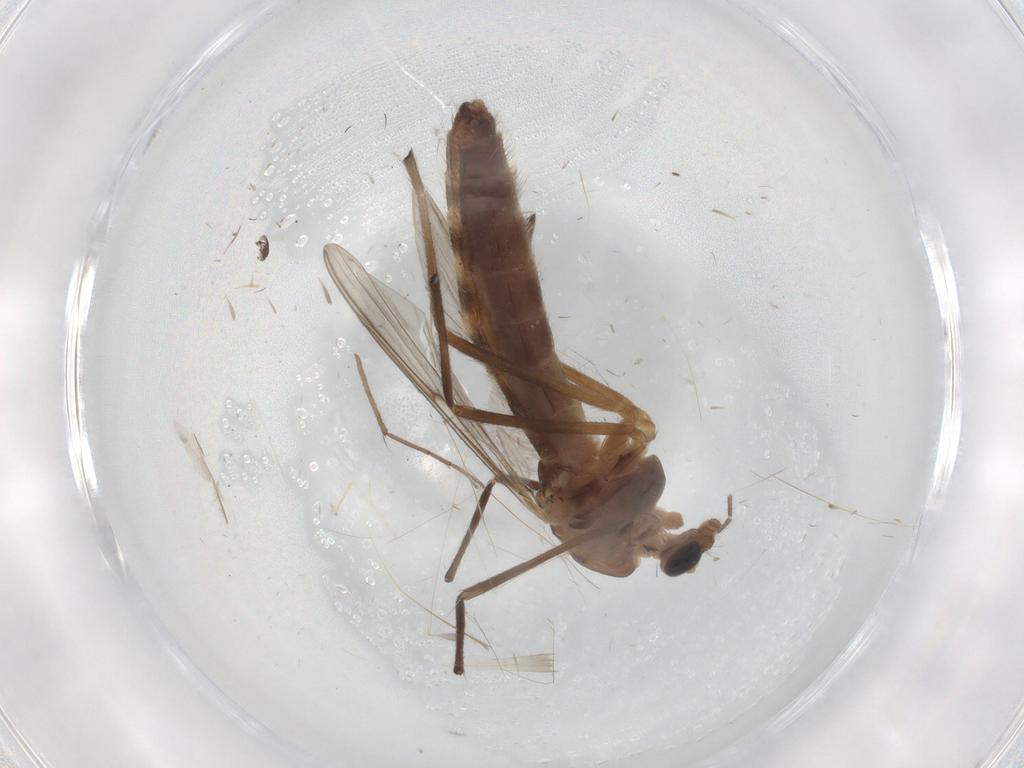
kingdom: Animalia
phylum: Arthropoda
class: Insecta
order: Diptera
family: Chironomidae
